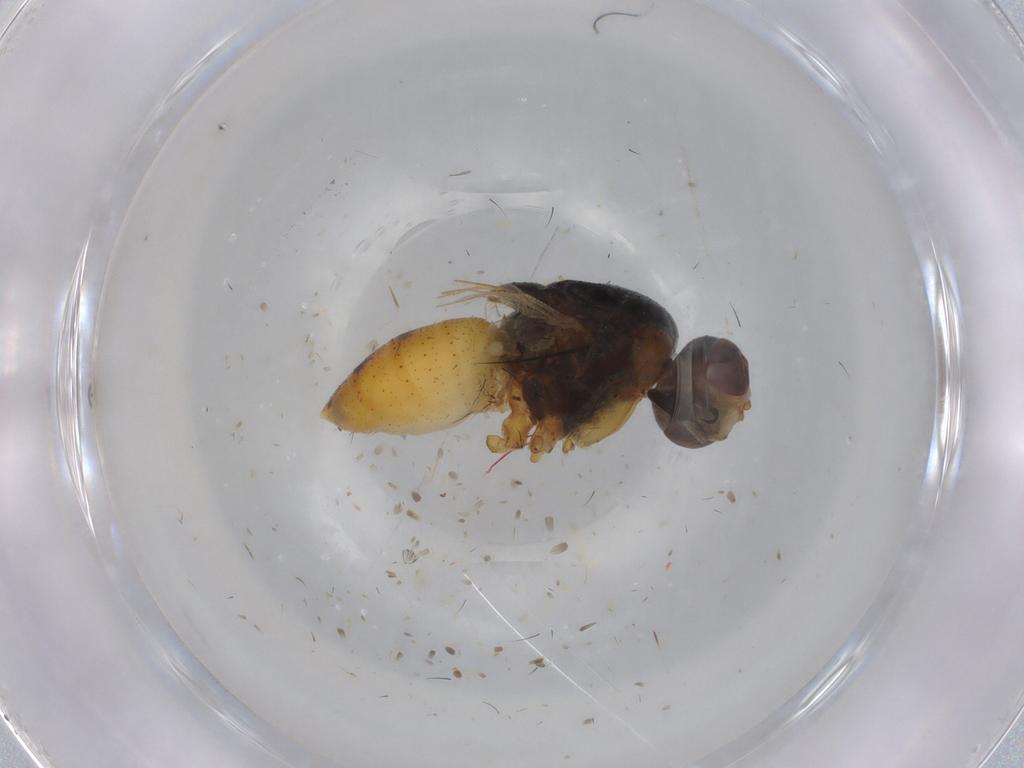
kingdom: Animalia
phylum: Arthropoda
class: Insecta
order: Diptera
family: Muscidae
